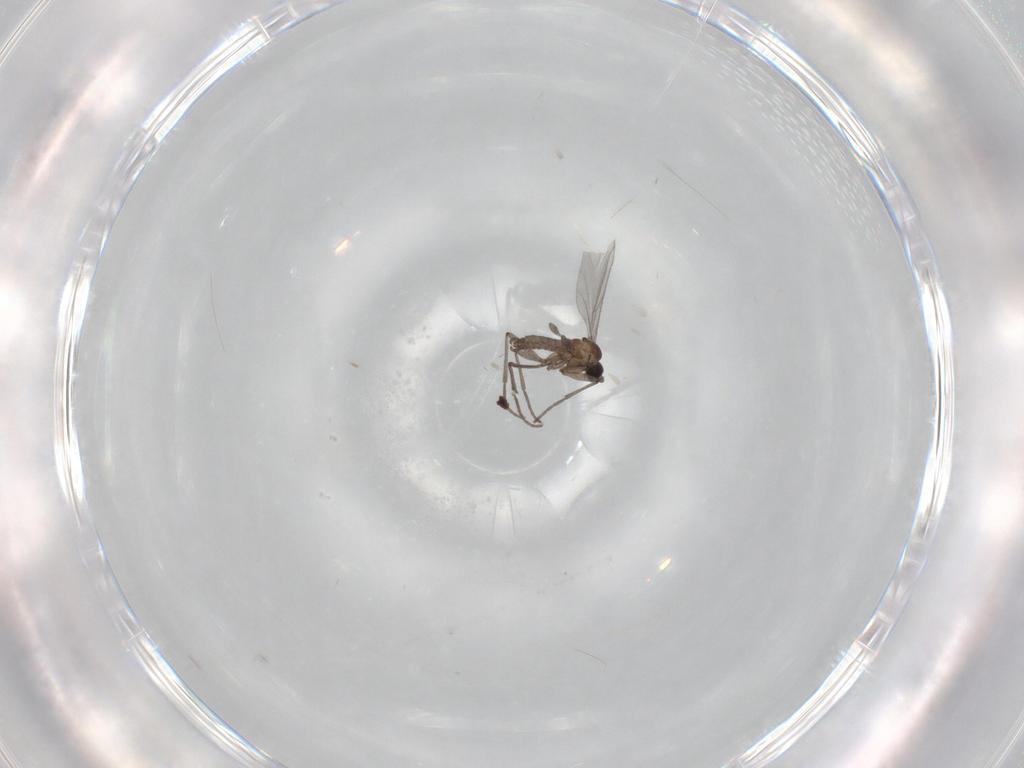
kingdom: Animalia
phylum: Arthropoda
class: Insecta
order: Diptera
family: Sciaridae
